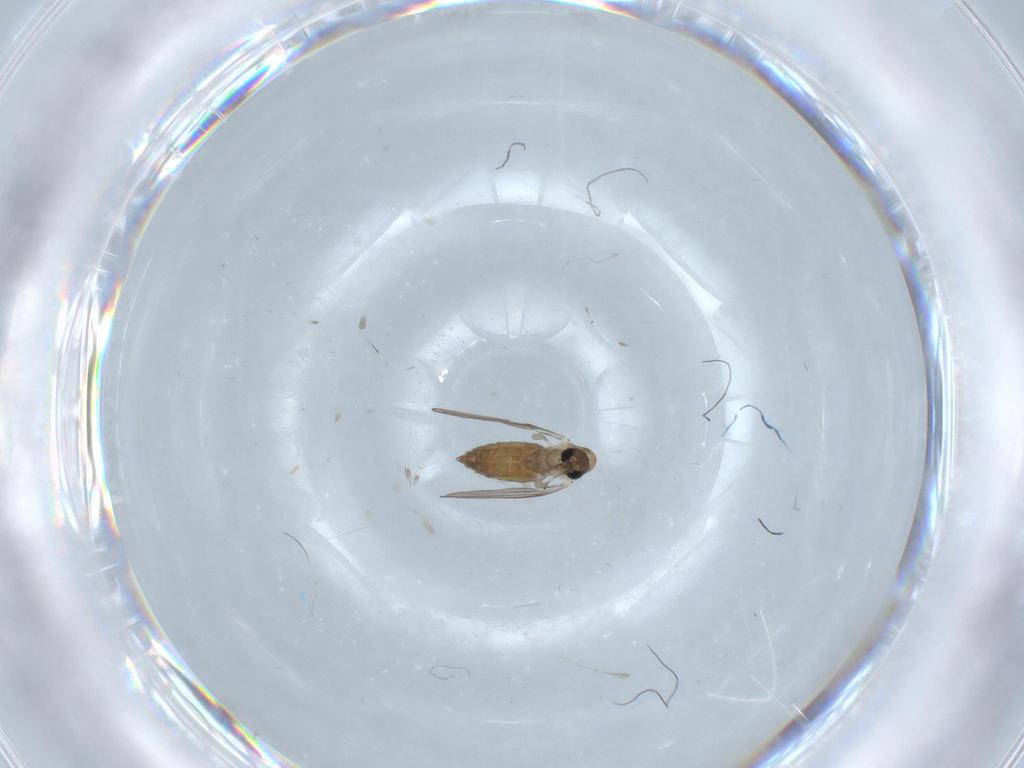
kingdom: Animalia
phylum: Arthropoda
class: Insecta
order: Diptera
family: Psychodidae
